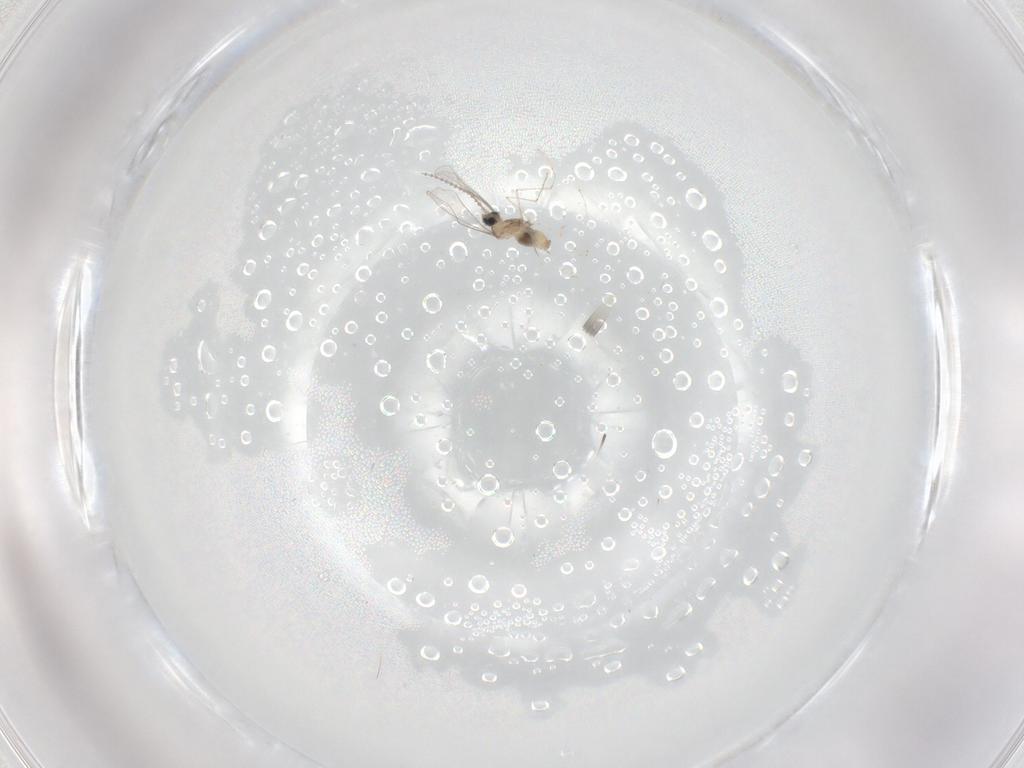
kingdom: Animalia
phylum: Arthropoda
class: Insecta
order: Diptera
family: Cecidomyiidae
